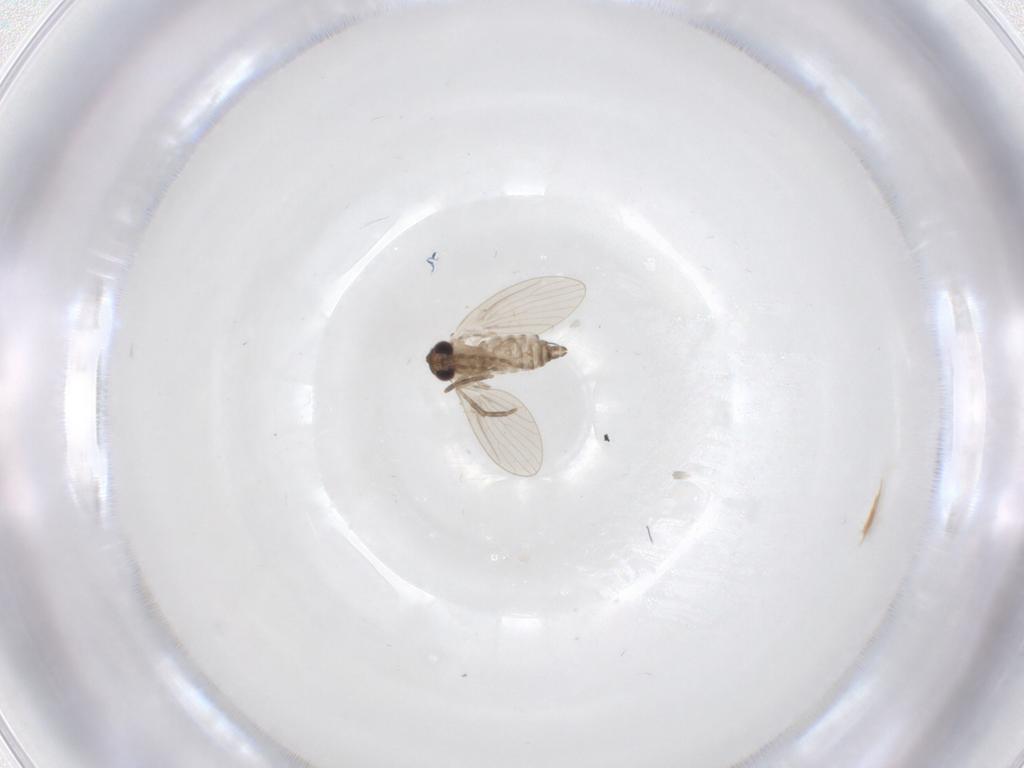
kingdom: Animalia
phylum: Arthropoda
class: Insecta
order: Diptera
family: Psychodidae
